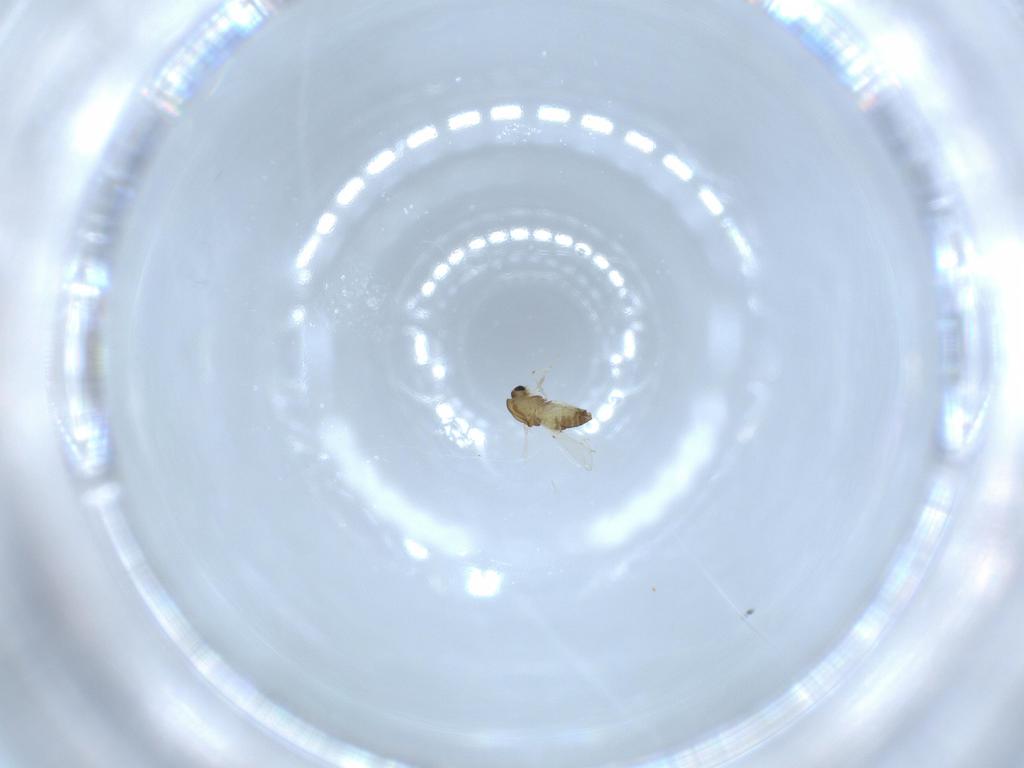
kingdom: Animalia
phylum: Arthropoda
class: Insecta
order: Diptera
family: Chironomidae
